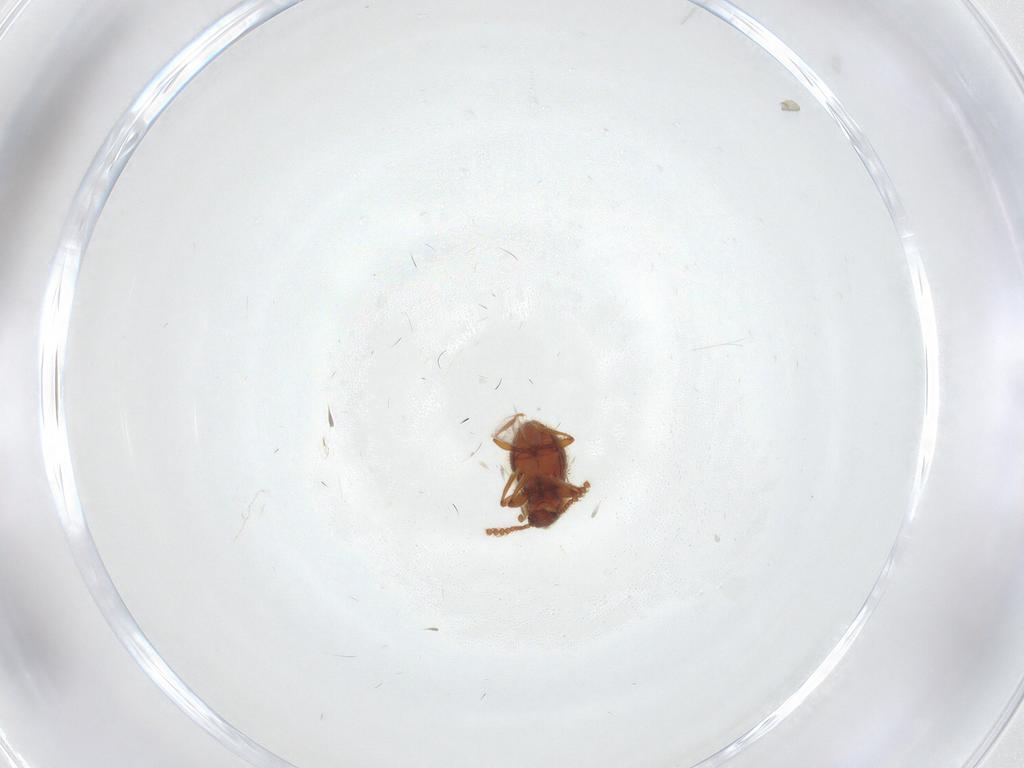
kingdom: Animalia
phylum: Arthropoda
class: Insecta
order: Coleoptera
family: Staphylinidae
